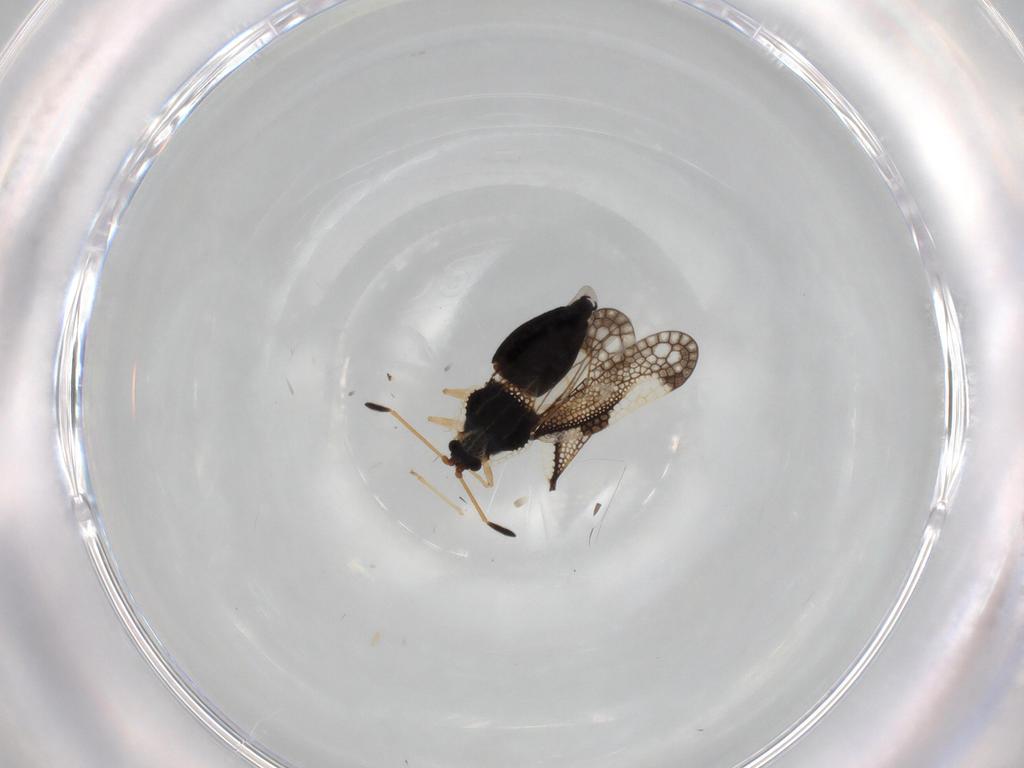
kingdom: Animalia
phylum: Arthropoda
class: Insecta
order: Hemiptera
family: Tingidae
